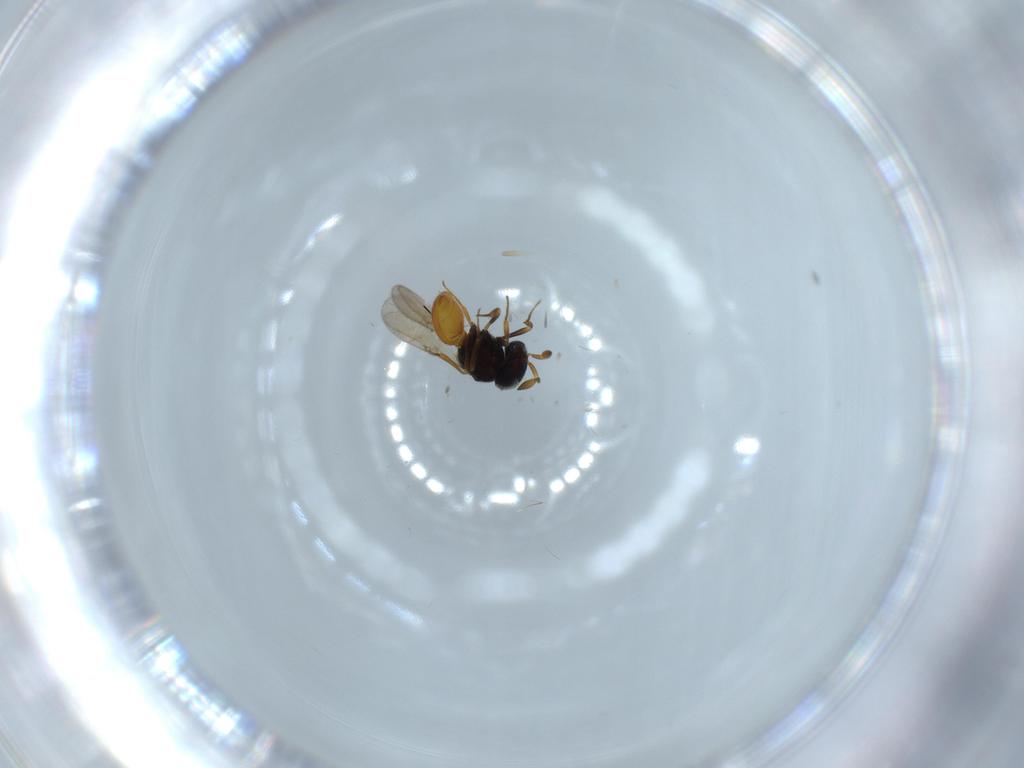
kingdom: Animalia
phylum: Arthropoda
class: Insecta
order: Hymenoptera
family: Scelionidae
